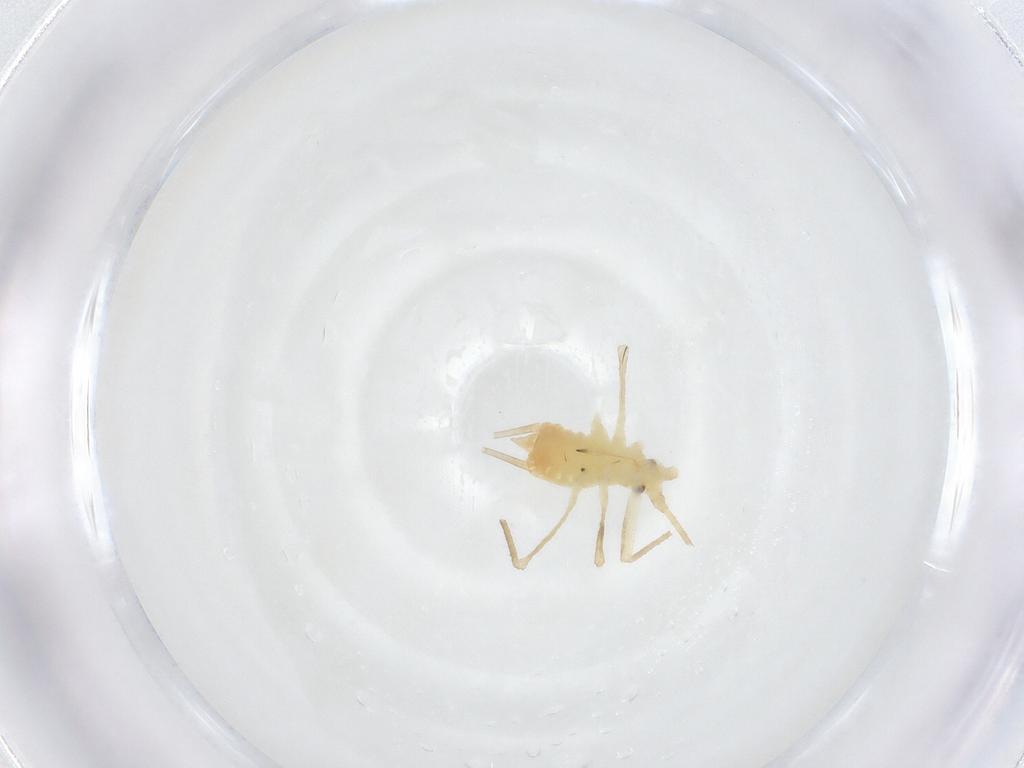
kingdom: Animalia
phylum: Arthropoda
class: Insecta
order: Hemiptera
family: Aphididae
